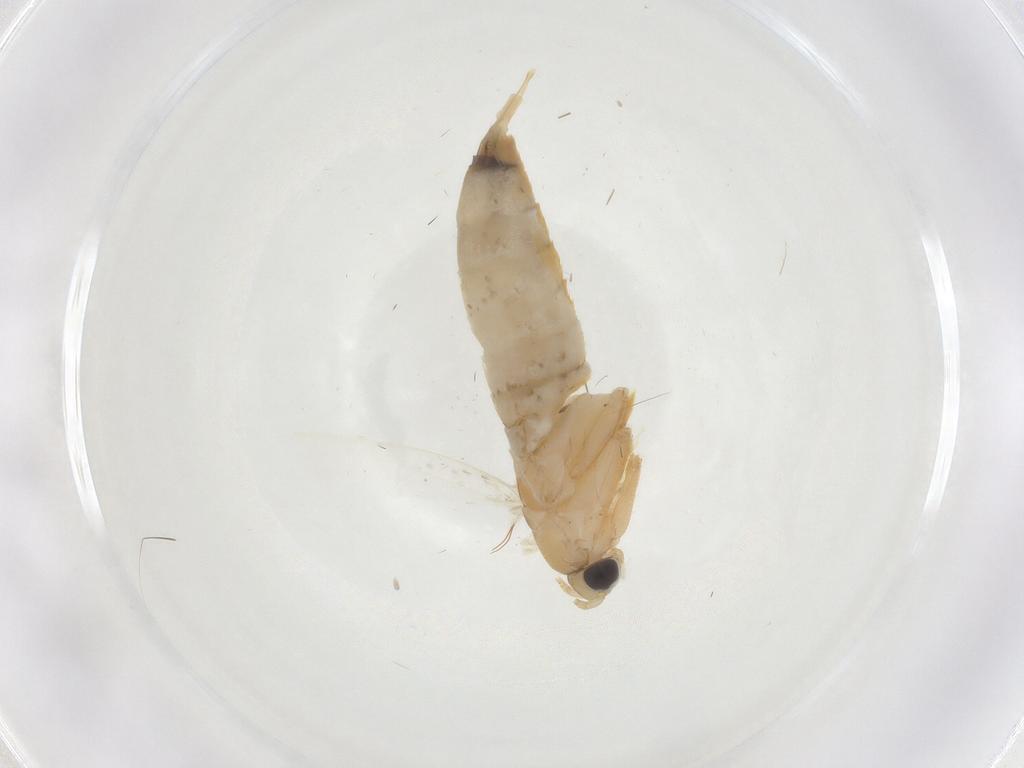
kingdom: Animalia
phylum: Arthropoda
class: Insecta
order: Lepidoptera
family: Tineidae
